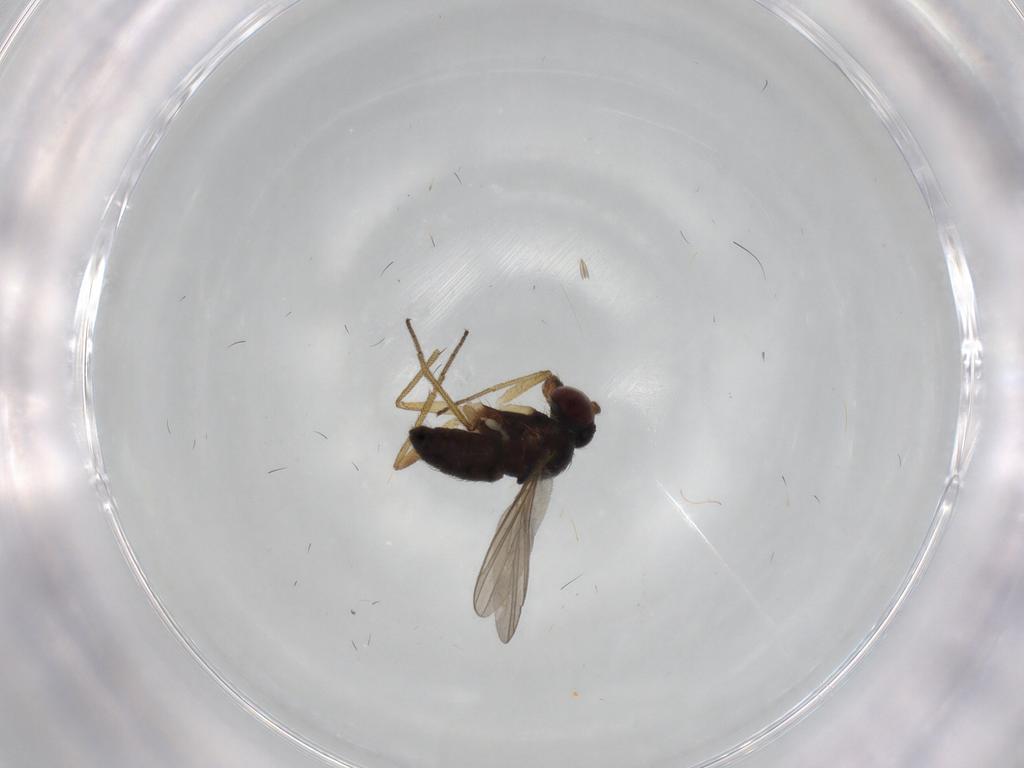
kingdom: Animalia
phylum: Arthropoda
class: Insecta
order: Diptera
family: Dolichopodidae
